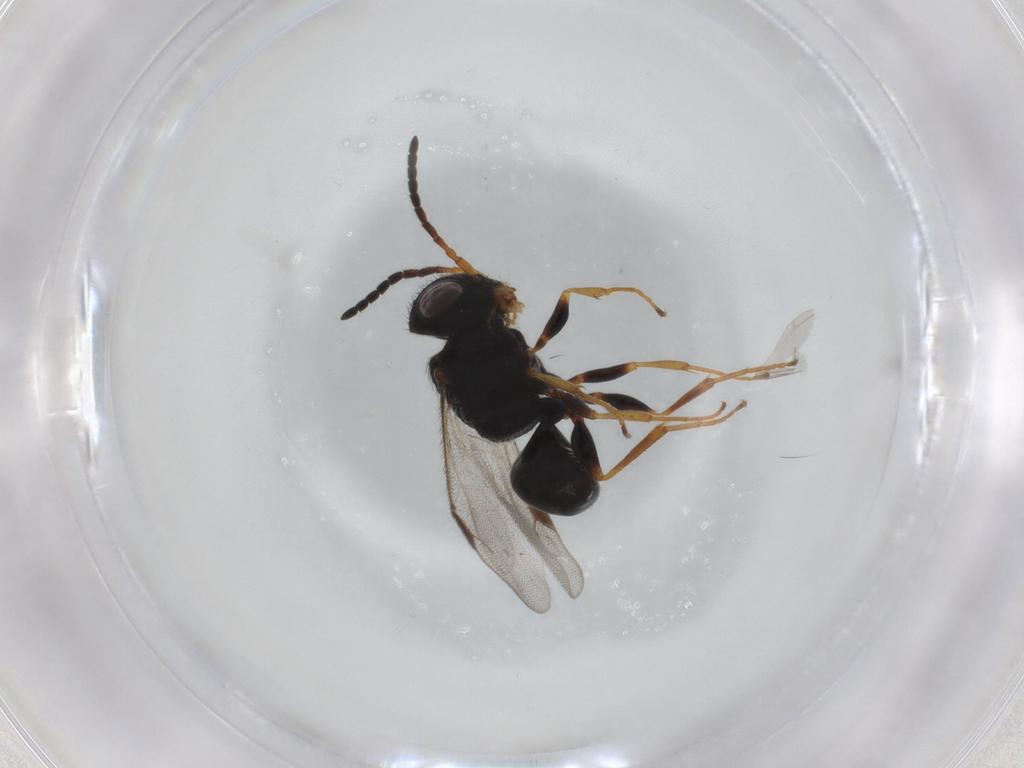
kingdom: Animalia
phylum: Arthropoda
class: Insecta
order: Hymenoptera
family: Dryinidae
